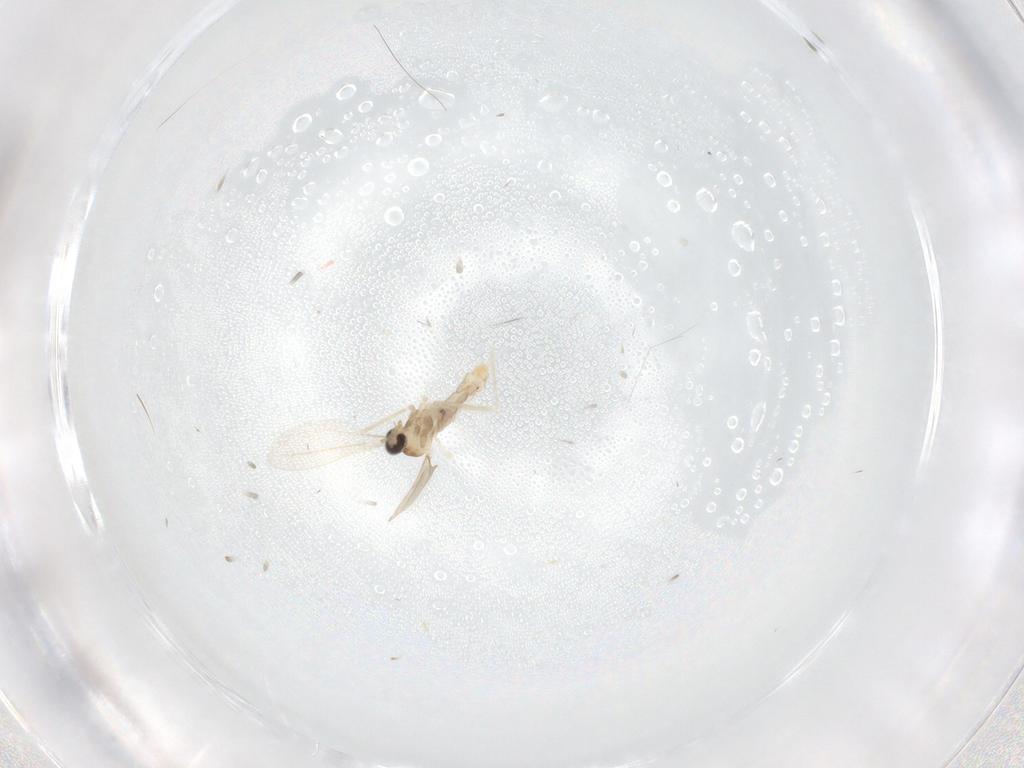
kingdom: Animalia
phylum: Arthropoda
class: Insecta
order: Diptera
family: Cecidomyiidae
